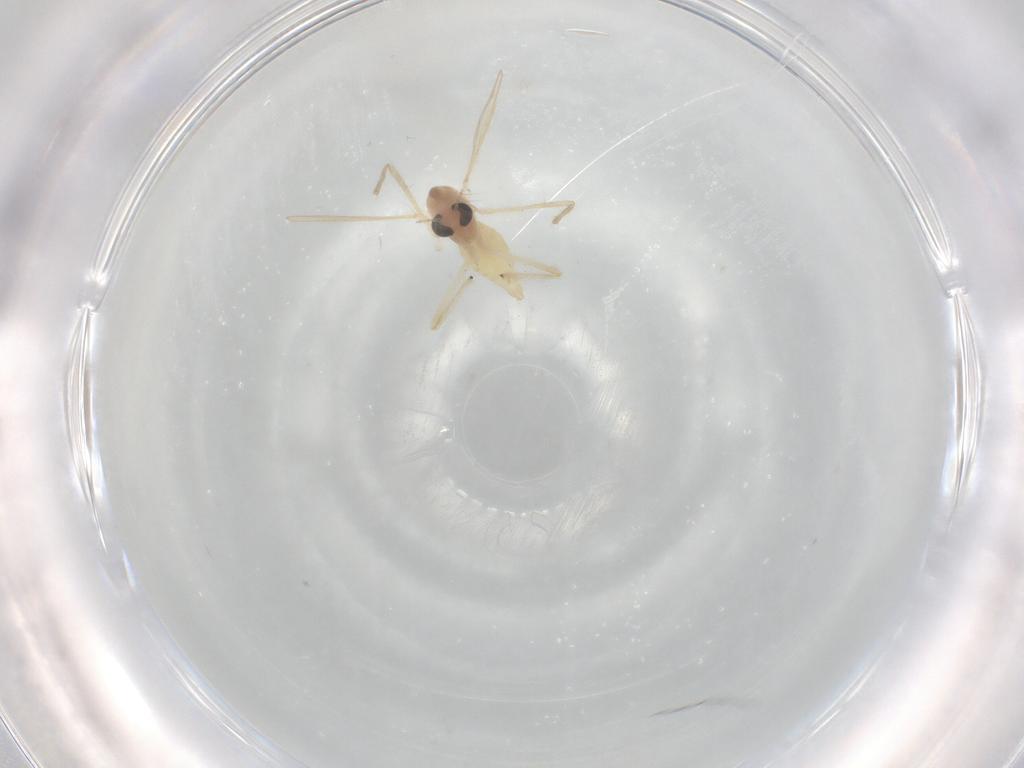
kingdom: Animalia
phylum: Arthropoda
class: Insecta
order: Diptera
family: Chironomidae
